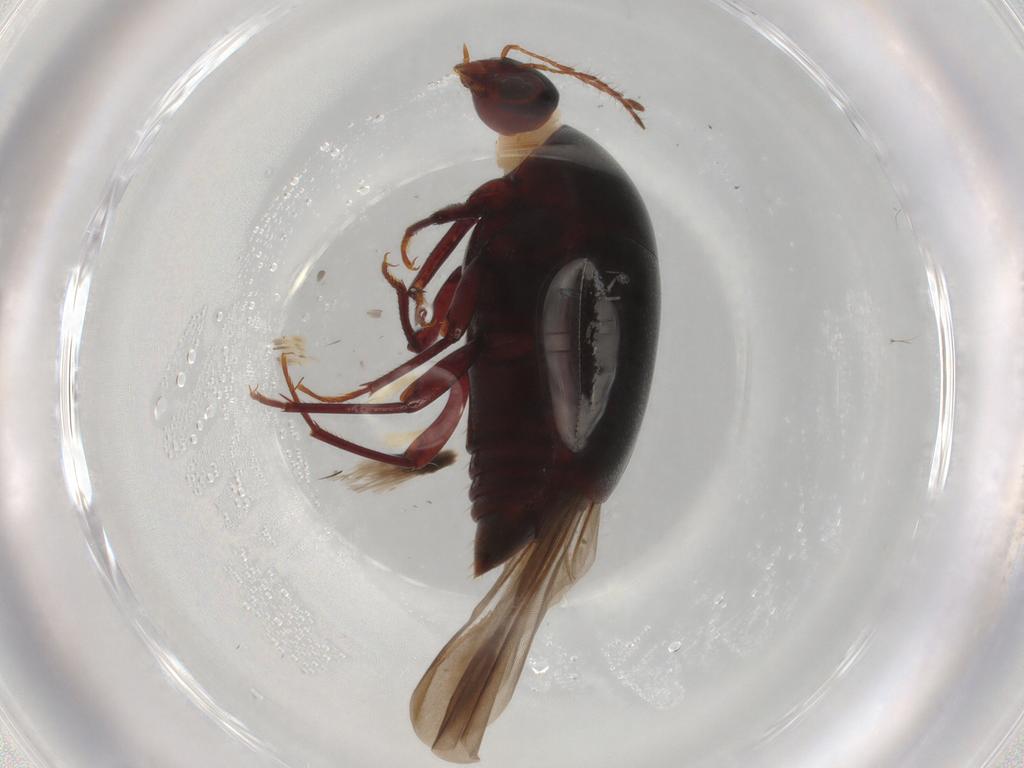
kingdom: Animalia
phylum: Arthropoda
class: Insecta
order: Coleoptera
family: Staphylinidae
